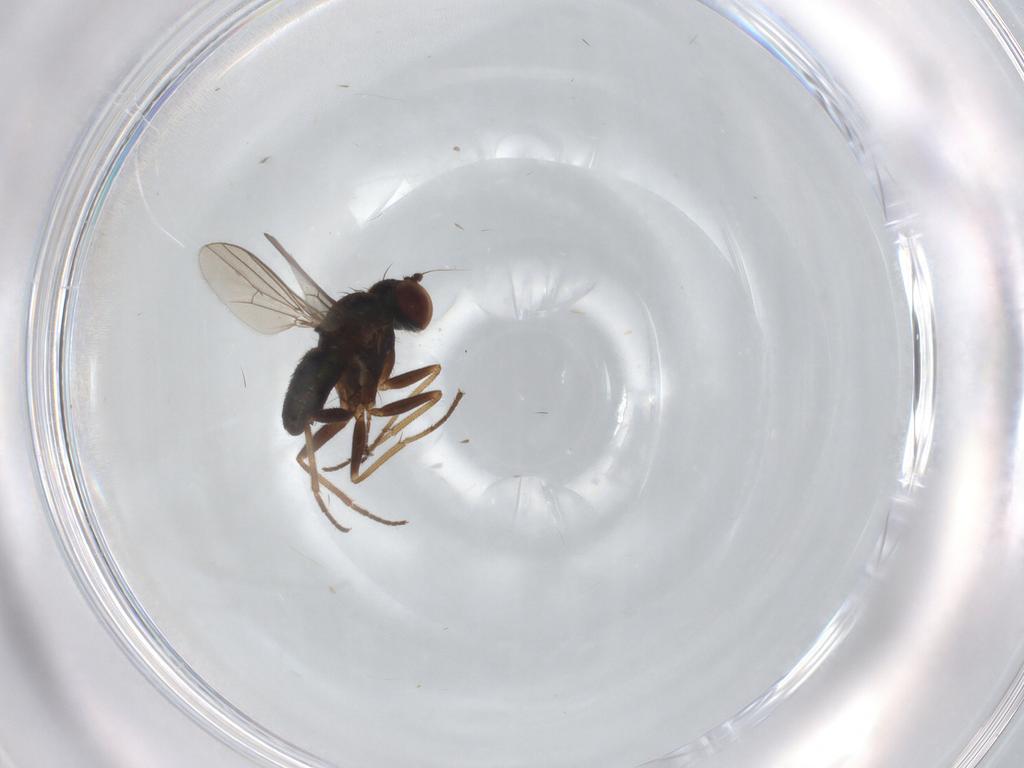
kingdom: Animalia
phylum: Arthropoda
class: Insecta
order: Diptera
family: Dolichopodidae
